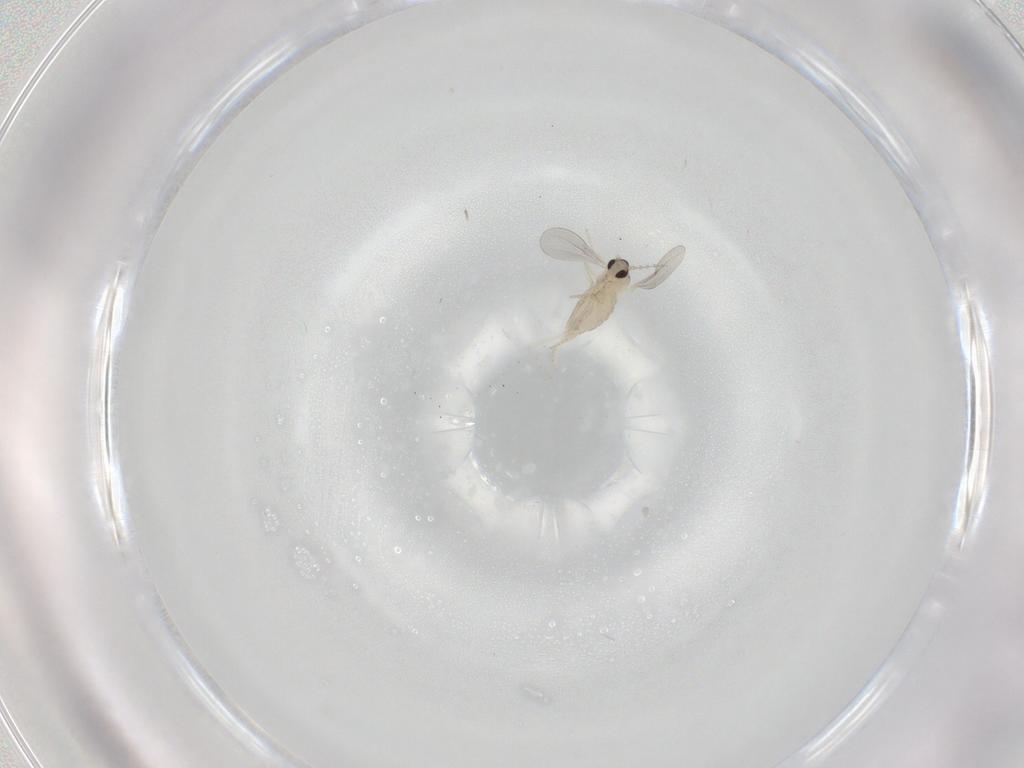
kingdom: Animalia
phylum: Arthropoda
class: Insecta
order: Diptera
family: Cecidomyiidae
